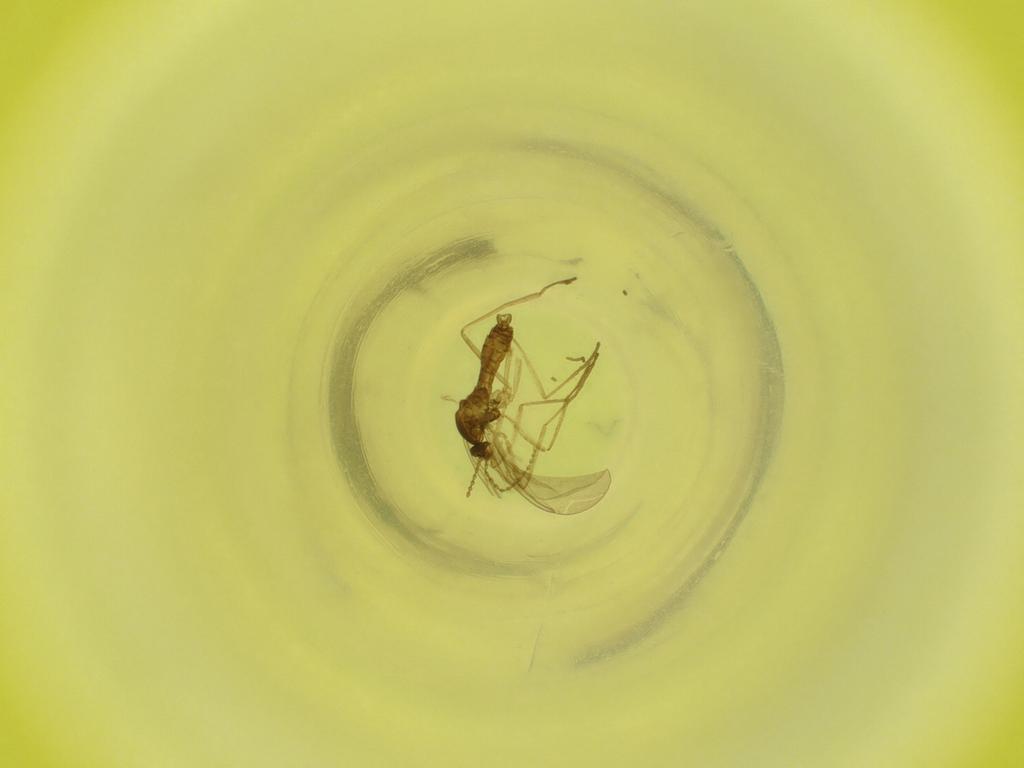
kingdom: Animalia
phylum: Arthropoda
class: Insecta
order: Diptera
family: Cecidomyiidae
